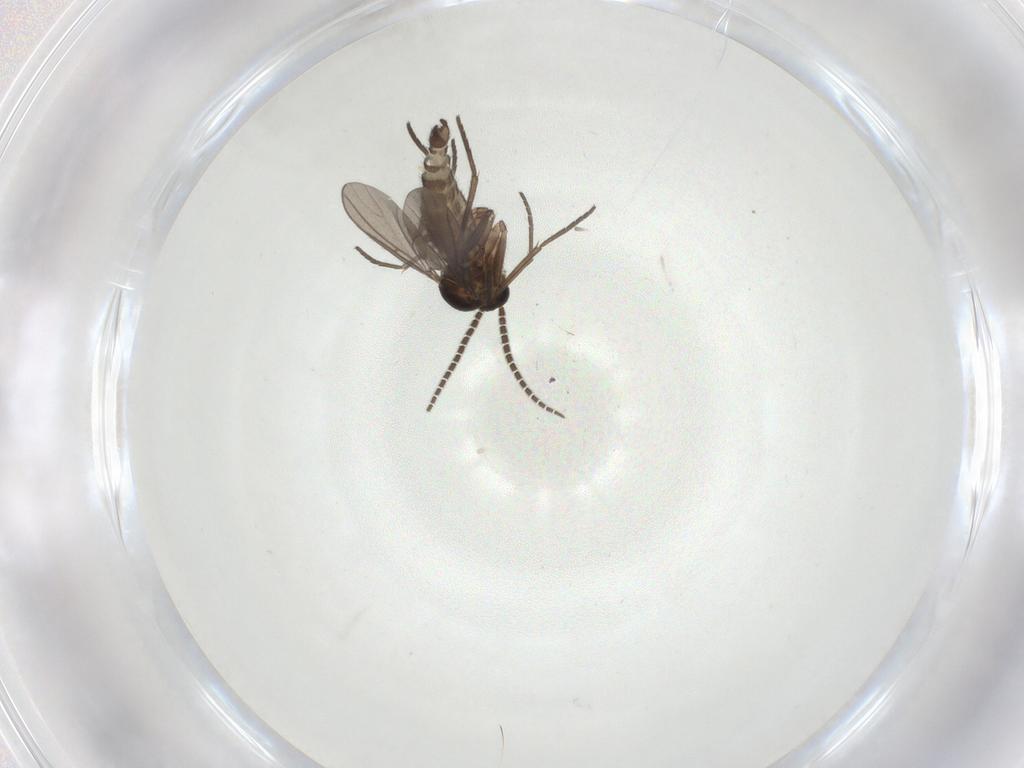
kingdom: Animalia
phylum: Arthropoda
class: Insecta
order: Diptera
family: Sciaridae
